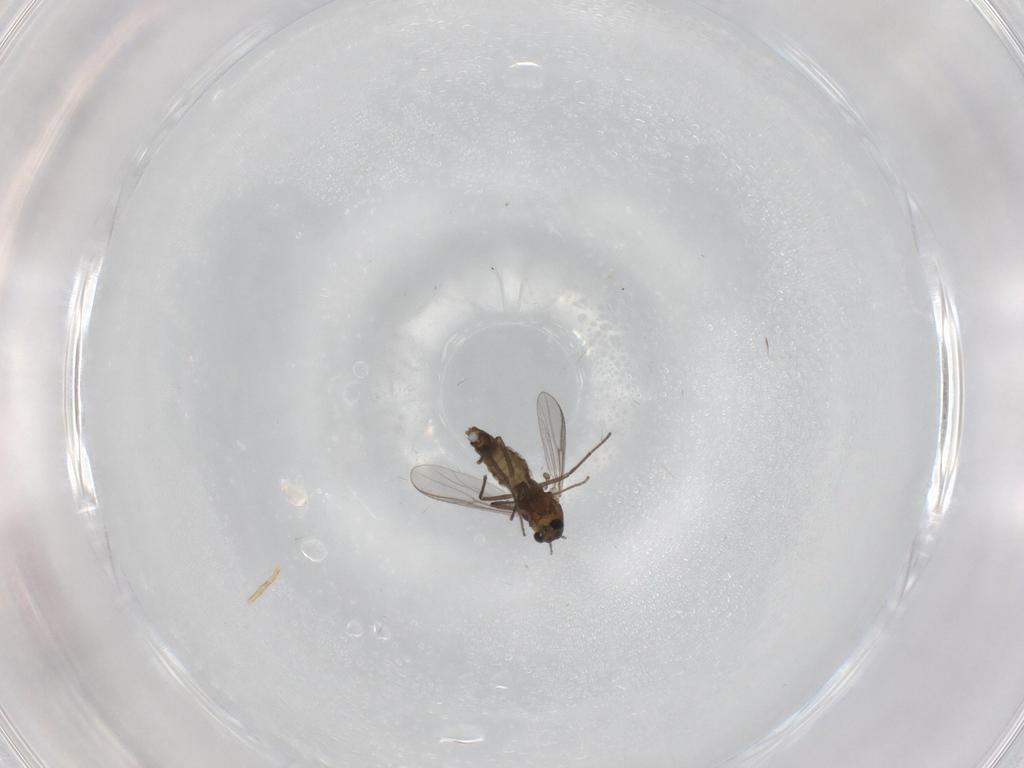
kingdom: Animalia
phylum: Arthropoda
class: Insecta
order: Diptera
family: Chironomidae
